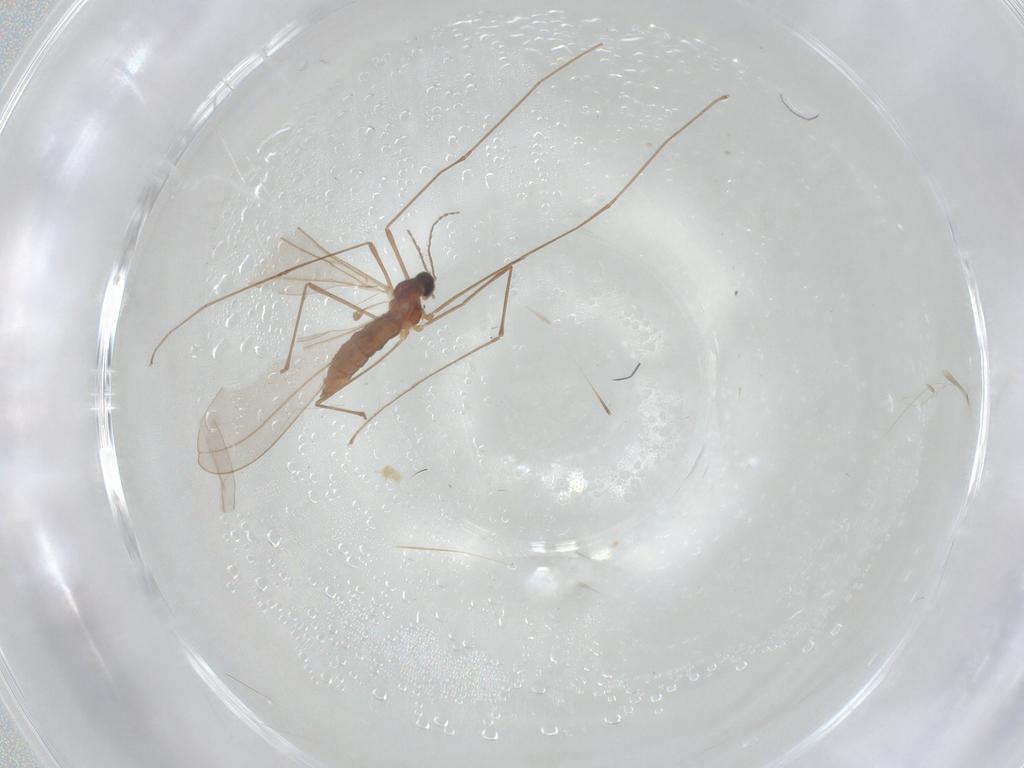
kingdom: Animalia
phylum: Arthropoda
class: Insecta
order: Diptera
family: Cecidomyiidae
